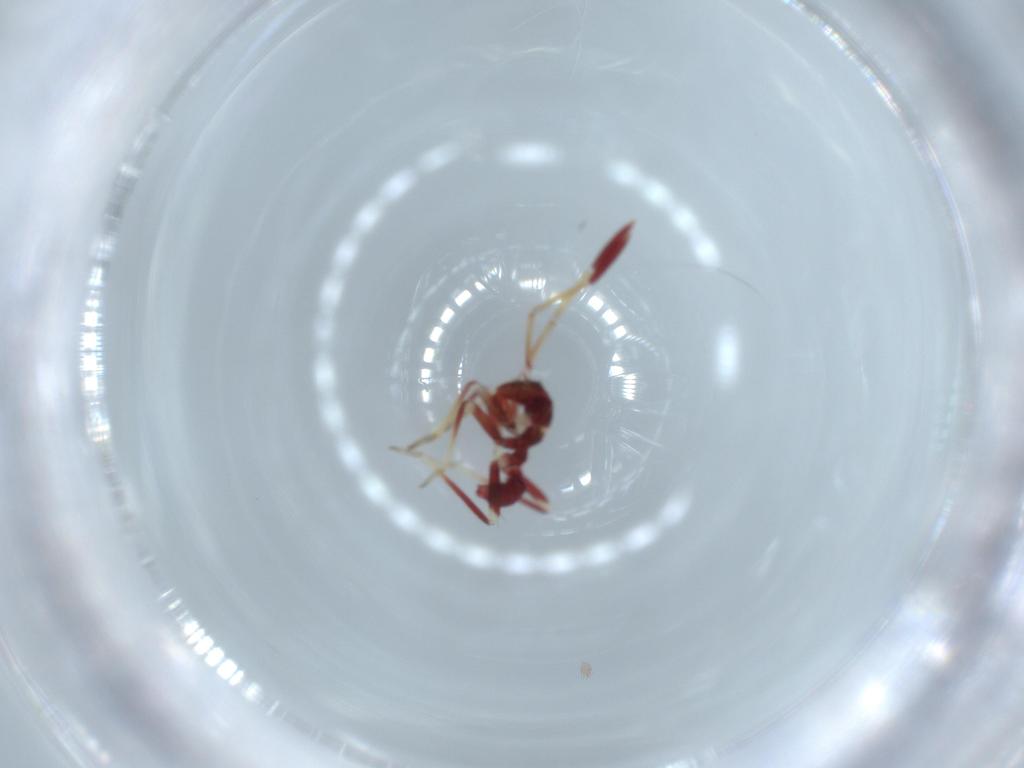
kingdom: Animalia
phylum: Arthropoda
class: Insecta
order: Hemiptera
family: Miridae
